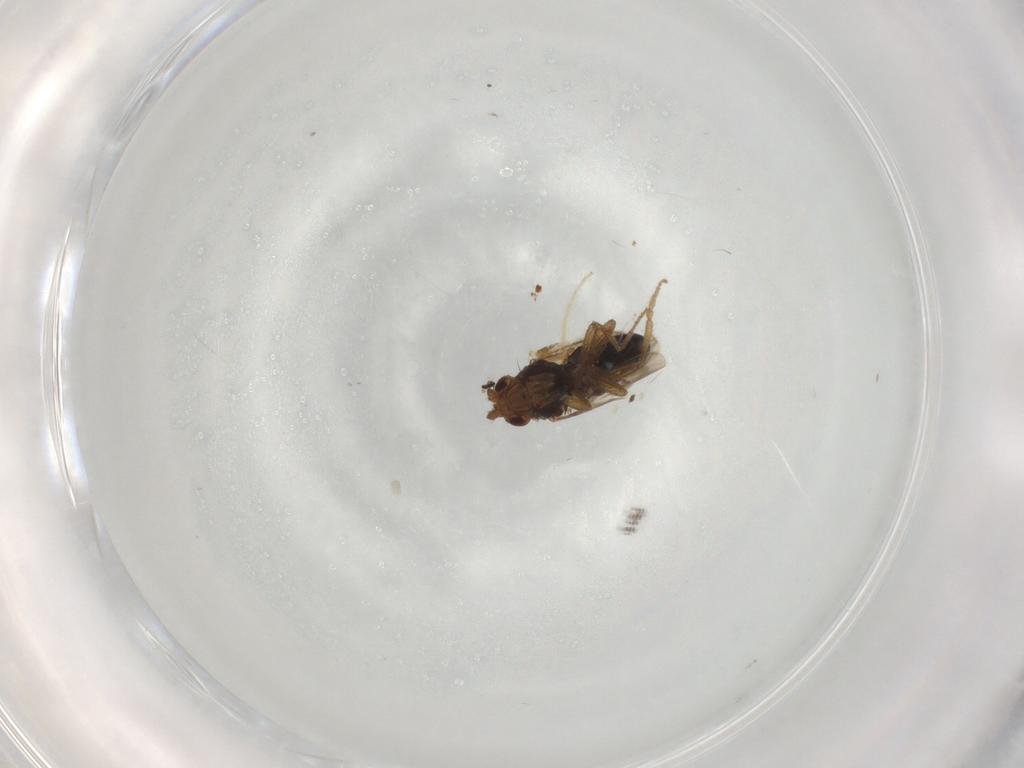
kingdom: Animalia
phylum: Arthropoda
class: Insecta
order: Diptera
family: Sphaeroceridae
